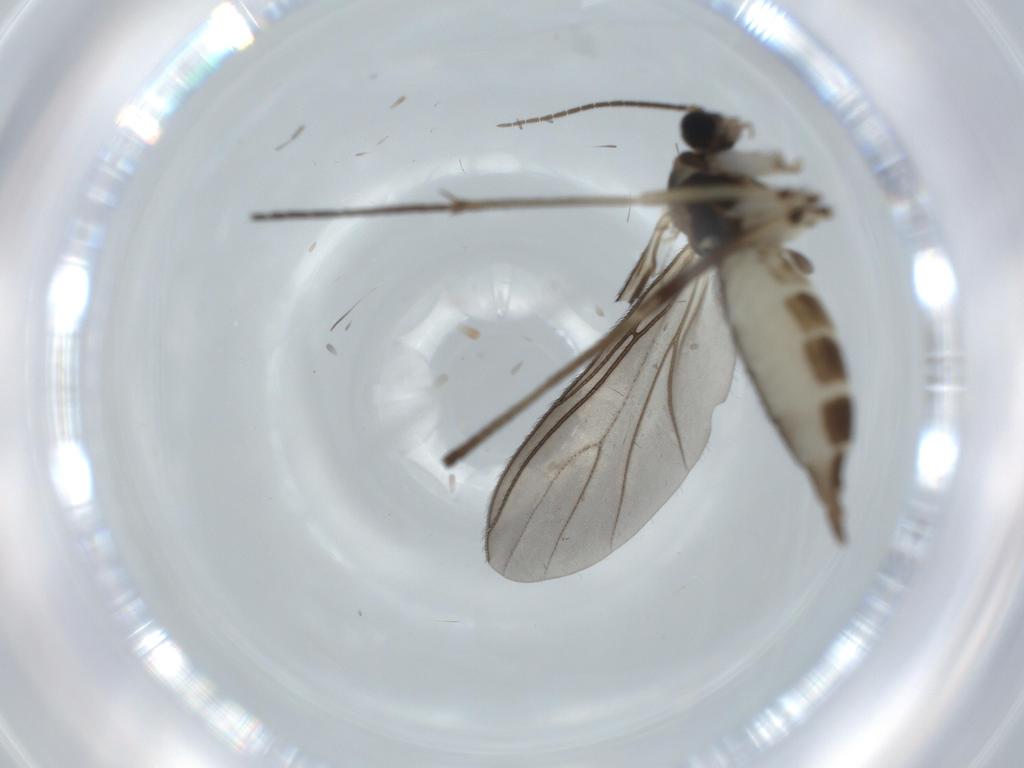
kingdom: Animalia
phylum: Arthropoda
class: Insecta
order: Diptera
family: Sciaridae
